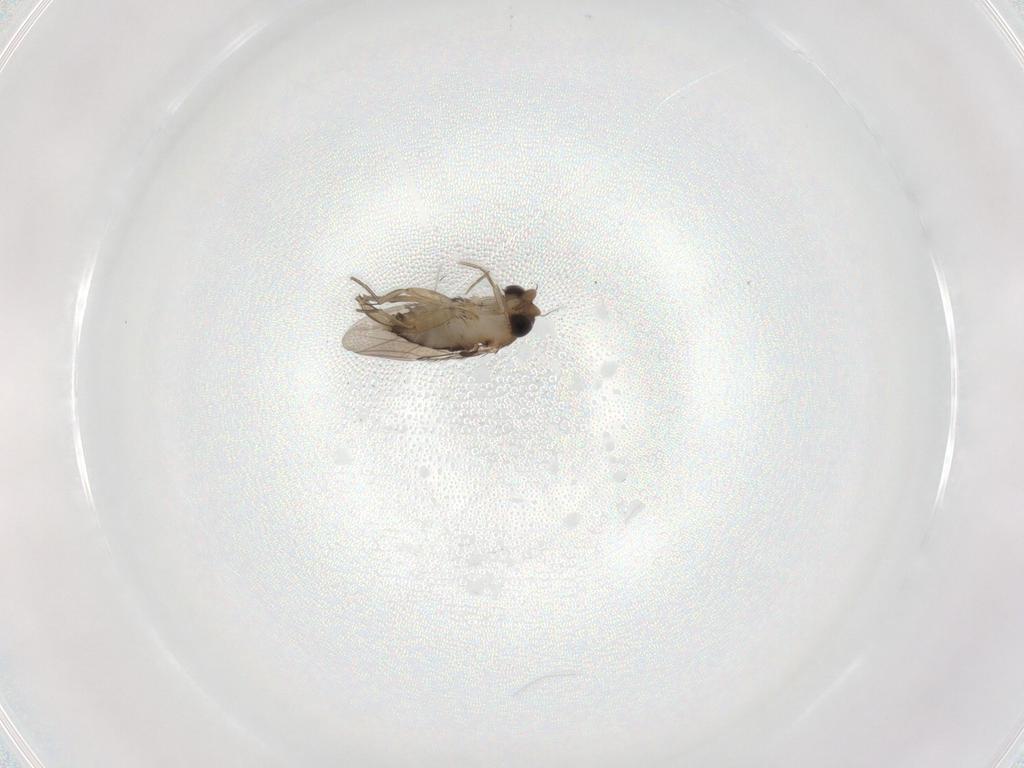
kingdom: Animalia
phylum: Arthropoda
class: Insecta
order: Diptera
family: Phoridae
